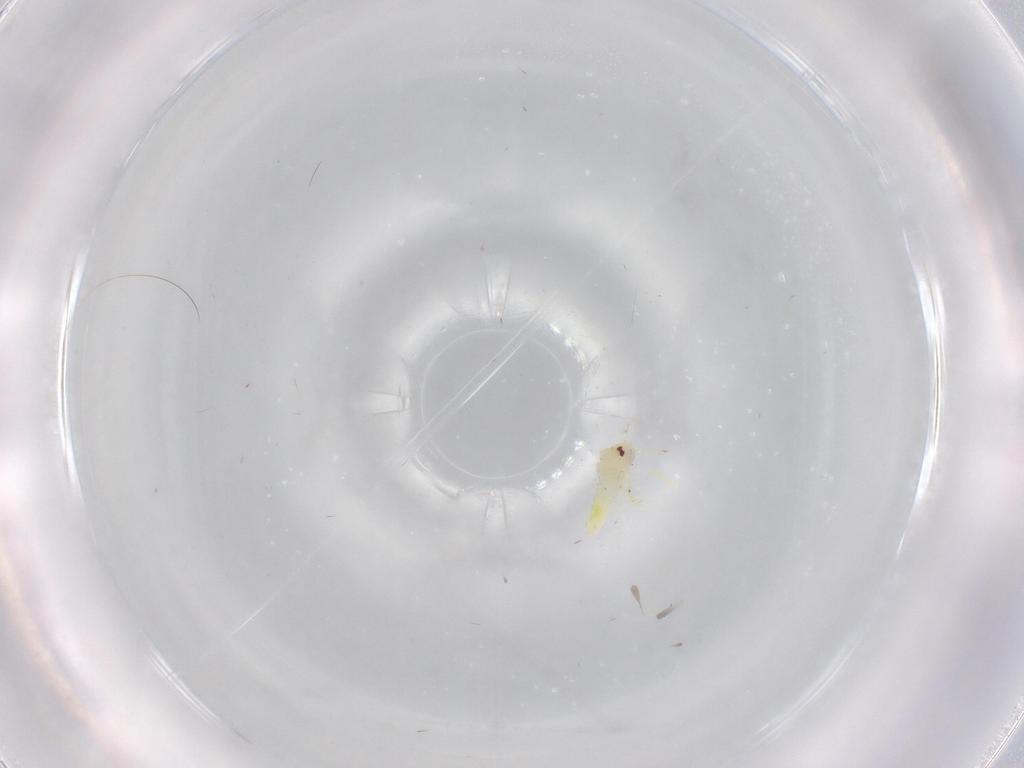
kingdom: Animalia
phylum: Arthropoda
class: Insecta
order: Hemiptera
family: Aleyrodidae
